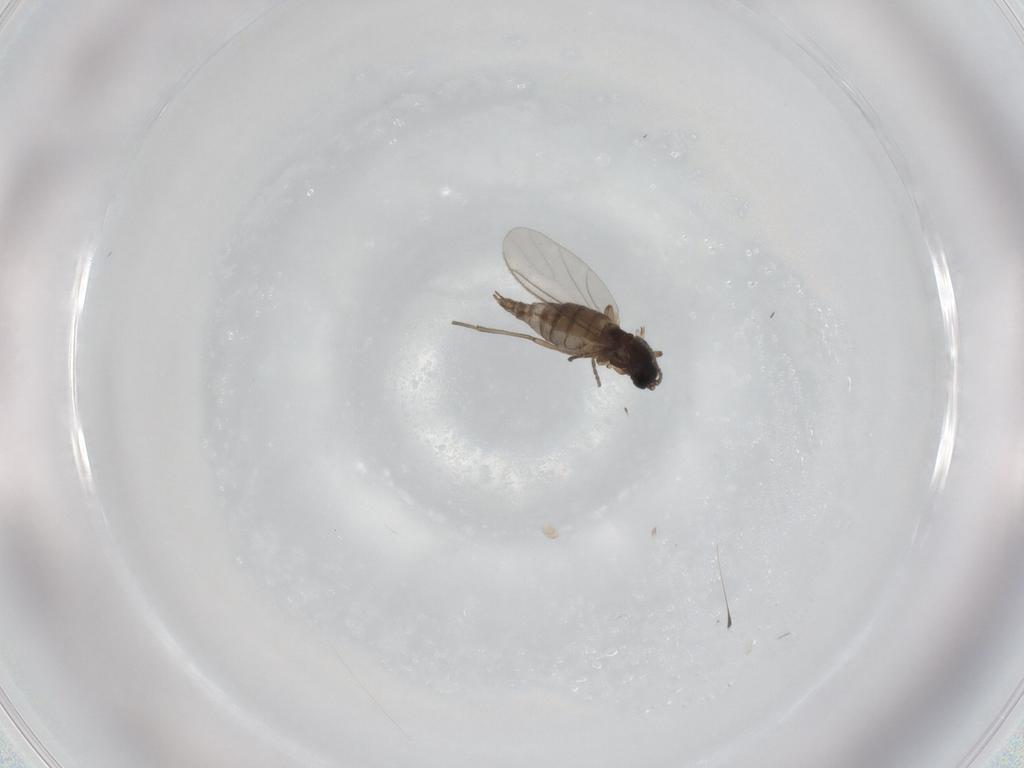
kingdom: Animalia
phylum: Arthropoda
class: Insecta
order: Diptera
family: Sciaridae
